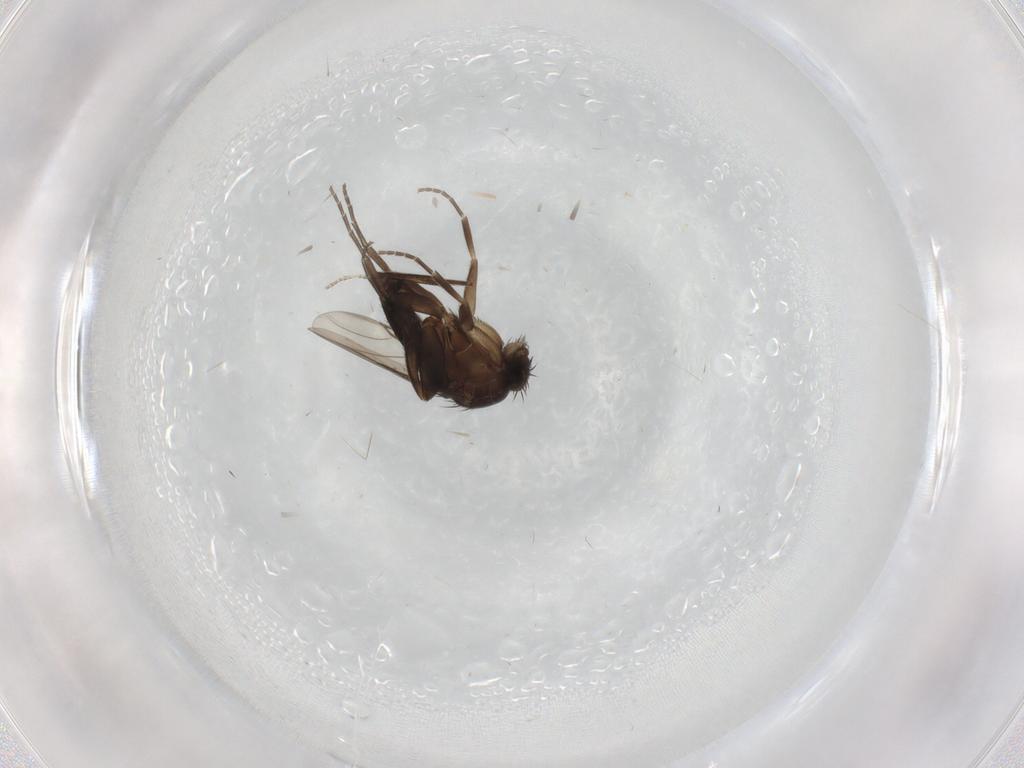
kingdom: Animalia
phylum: Arthropoda
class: Insecta
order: Diptera
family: Phoridae
